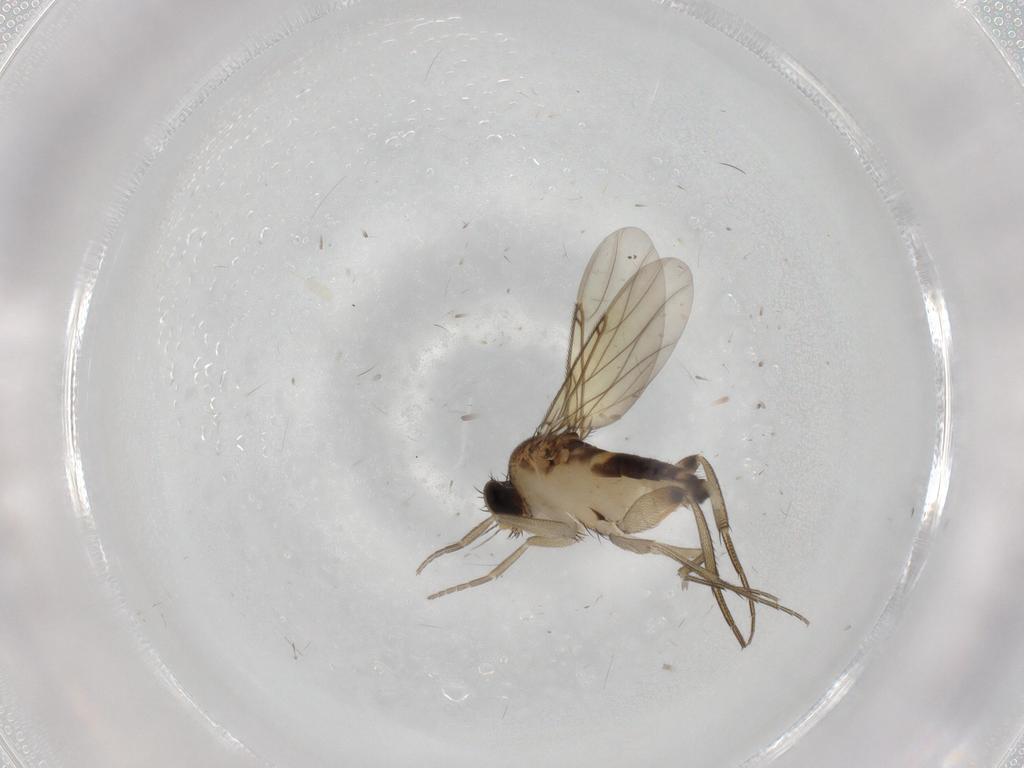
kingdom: Animalia
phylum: Arthropoda
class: Insecta
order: Diptera
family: Phoridae
